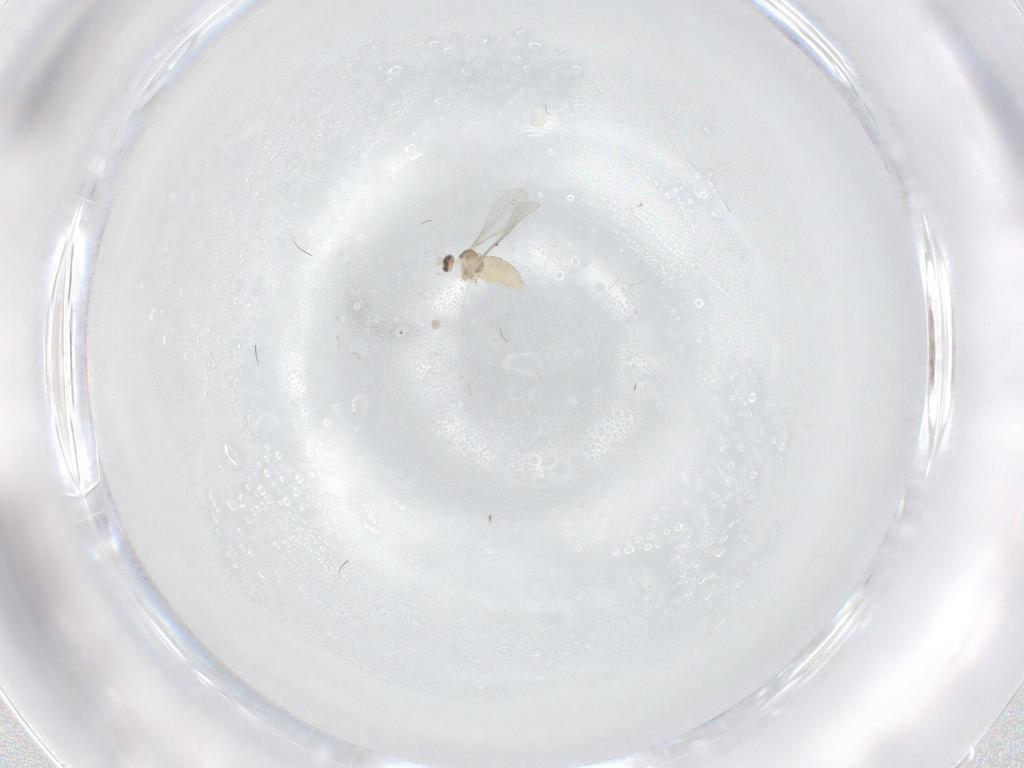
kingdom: Animalia
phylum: Arthropoda
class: Insecta
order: Diptera
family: Cecidomyiidae
